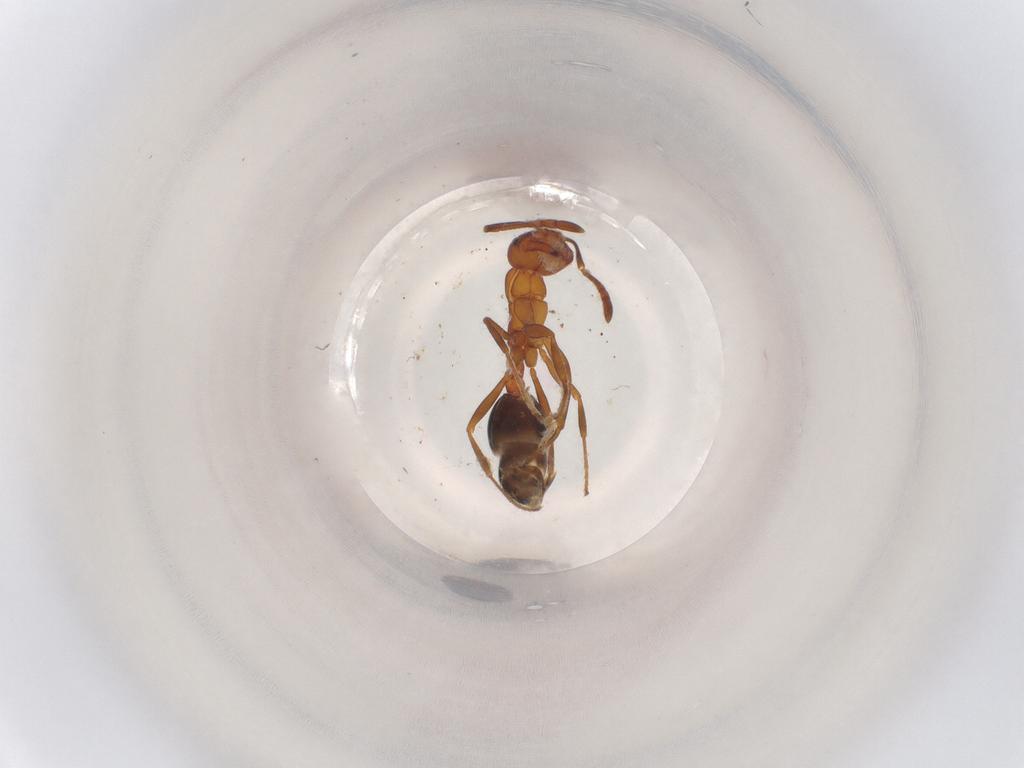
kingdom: Animalia
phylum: Arthropoda
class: Insecta
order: Hymenoptera
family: Formicidae
